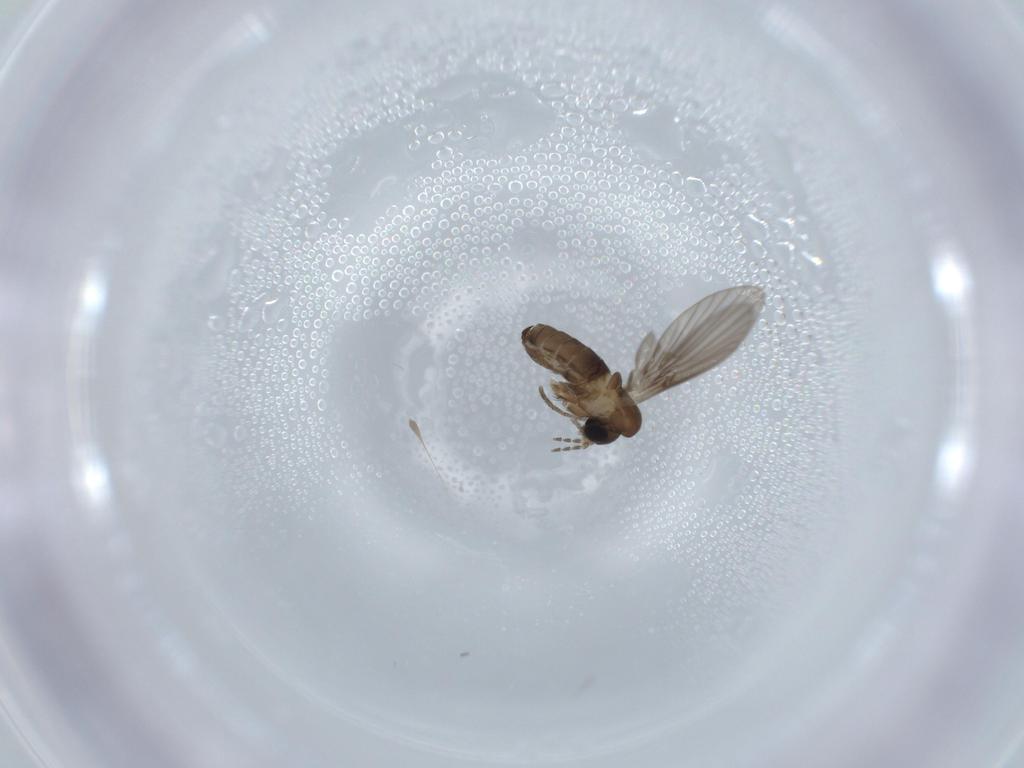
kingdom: Animalia
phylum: Arthropoda
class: Insecta
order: Diptera
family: Psychodidae
